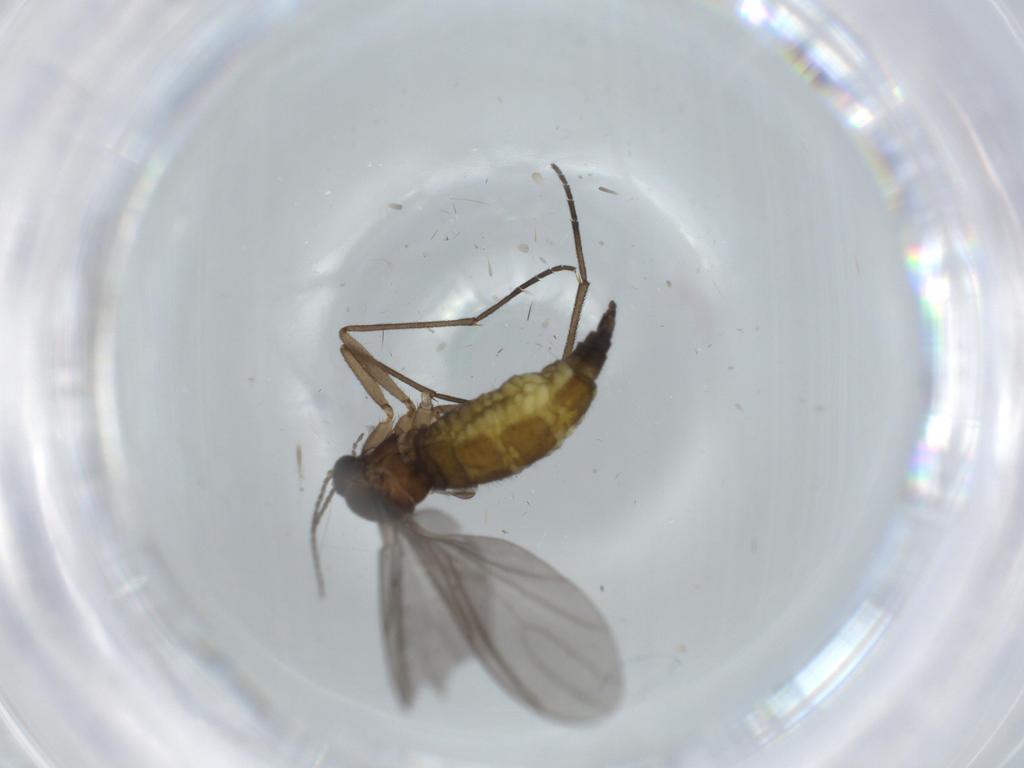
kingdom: Animalia
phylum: Arthropoda
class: Insecta
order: Diptera
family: Sciaridae
